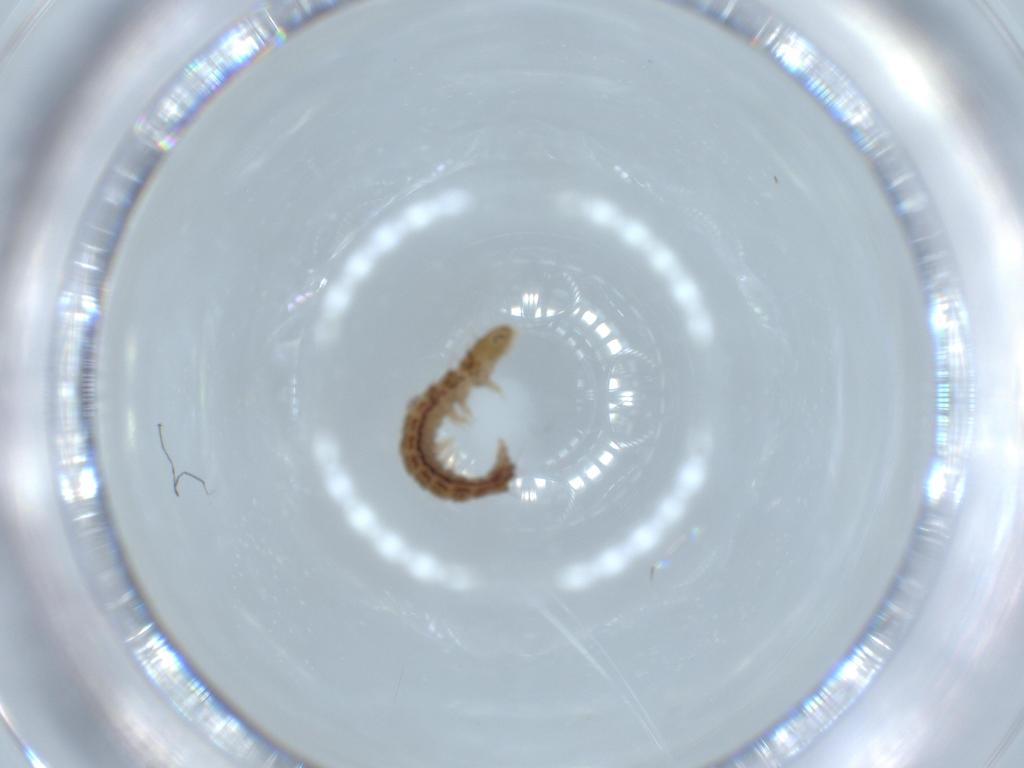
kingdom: Animalia
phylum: Arthropoda
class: Insecta
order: Lepidoptera
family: Choreutidae
